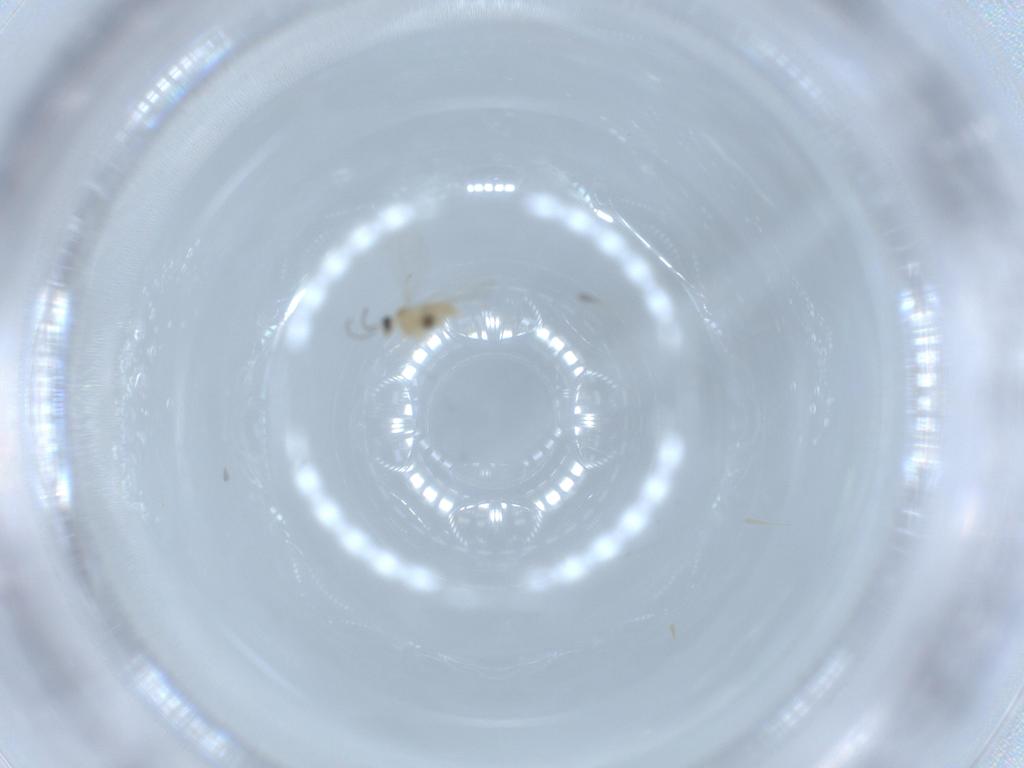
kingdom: Animalia
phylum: Arthropoda
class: Insecta
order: Diptera
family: Cecidomyiidae
